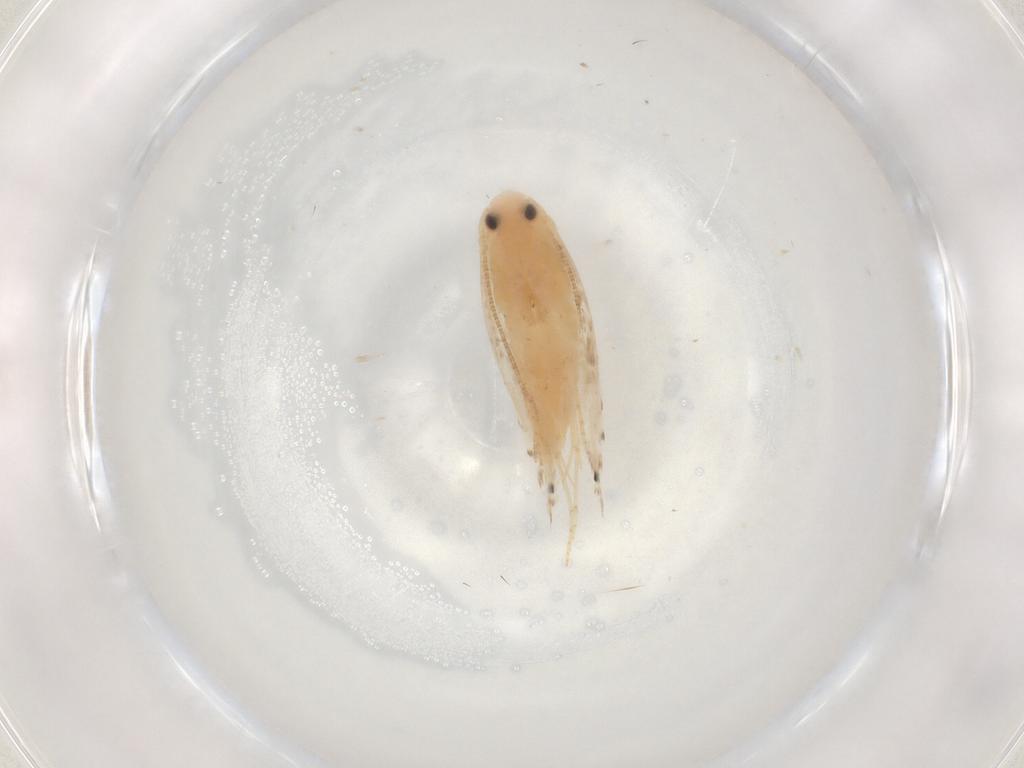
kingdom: Animalia
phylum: Arthropoda
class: Insecta
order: Lepidoptera
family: Gracillariidae
